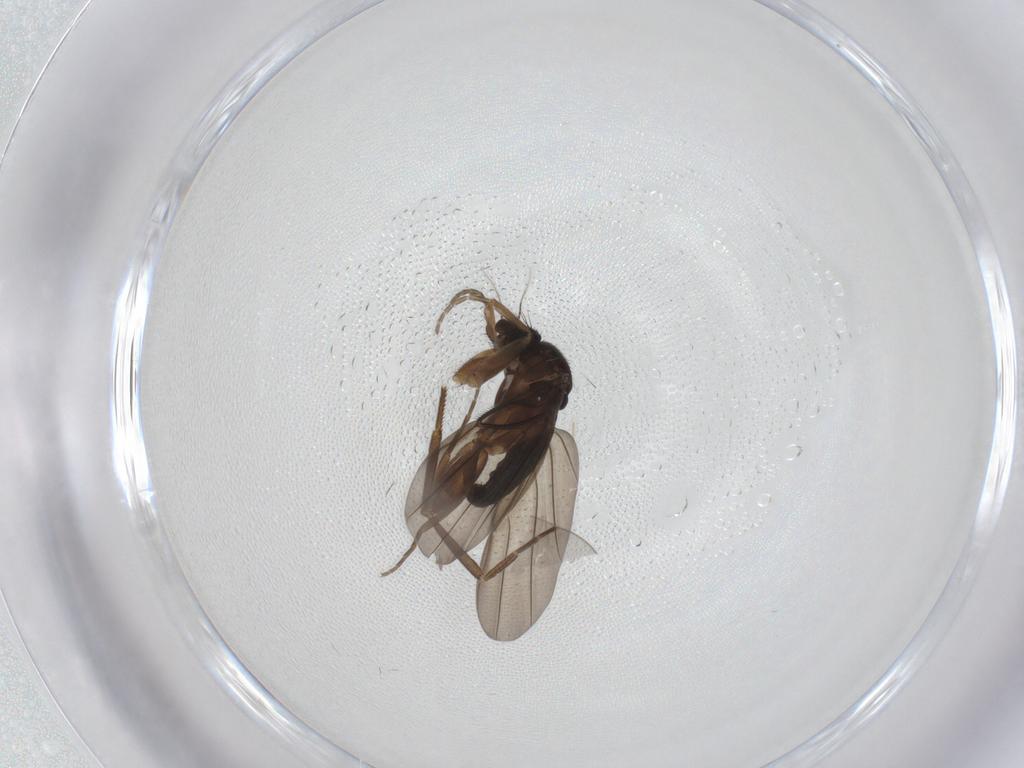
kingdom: Animalia
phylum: Arthropoda
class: Insecta
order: Diptera
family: Sciaridae
